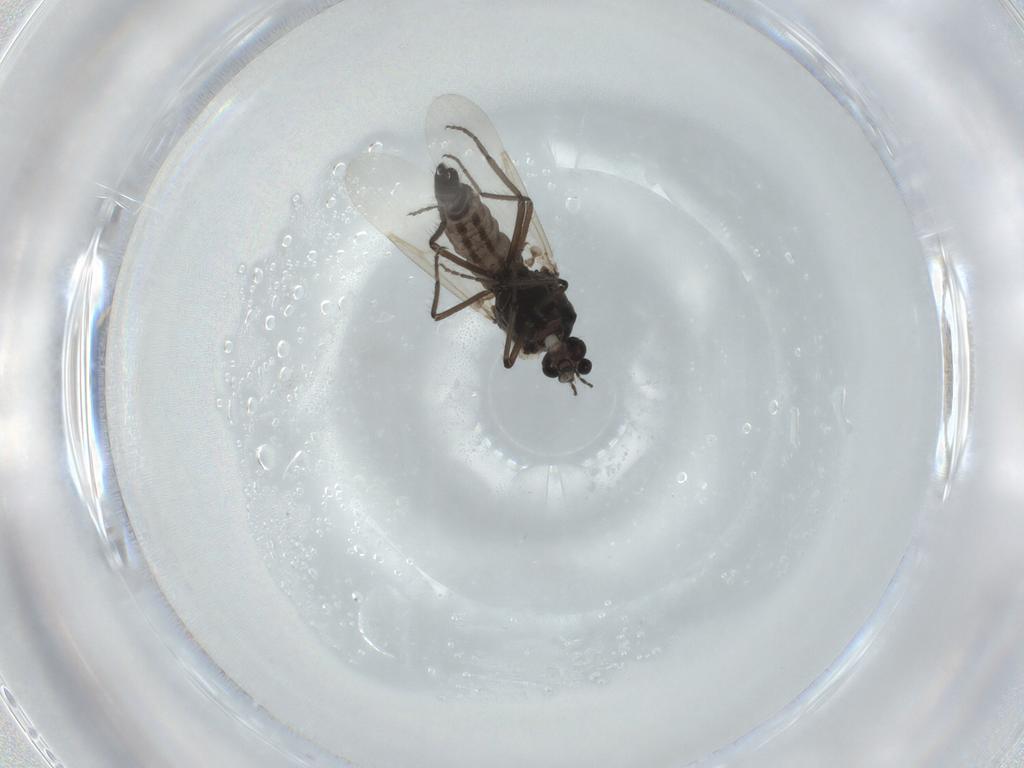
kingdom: Animalia
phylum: Arthropoda
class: Insecta
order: Diptera
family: Ceratopogonidae
